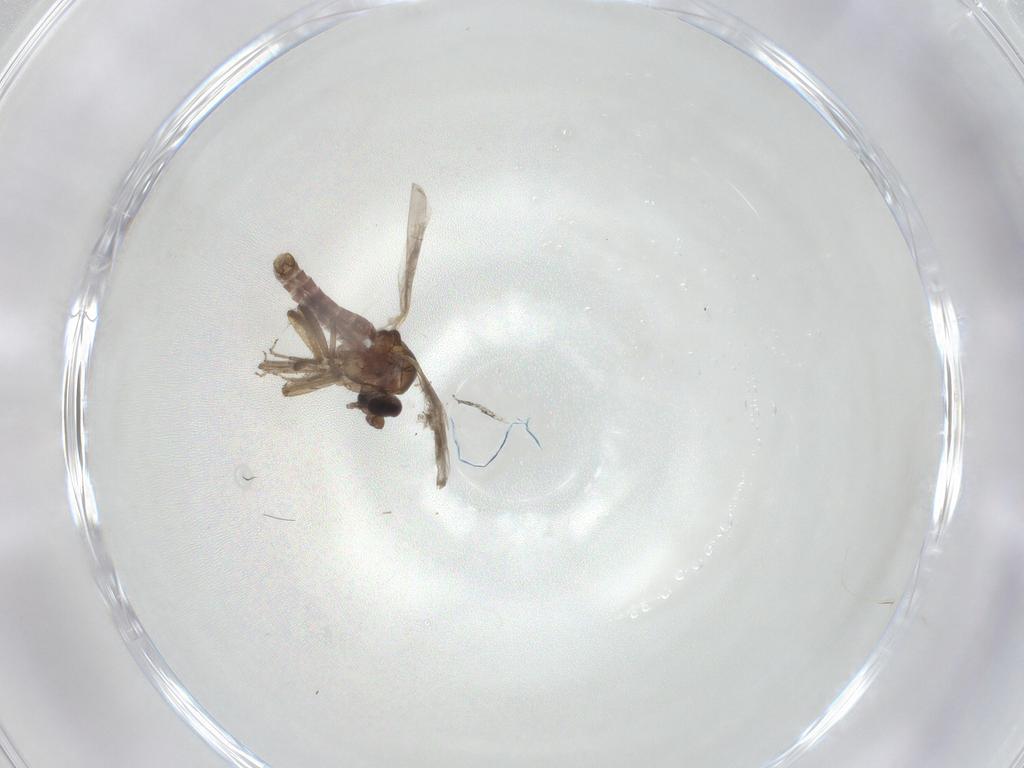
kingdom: Animalia
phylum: Arthropoda
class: Insecta
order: Diptera
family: Ceratopogonidae
